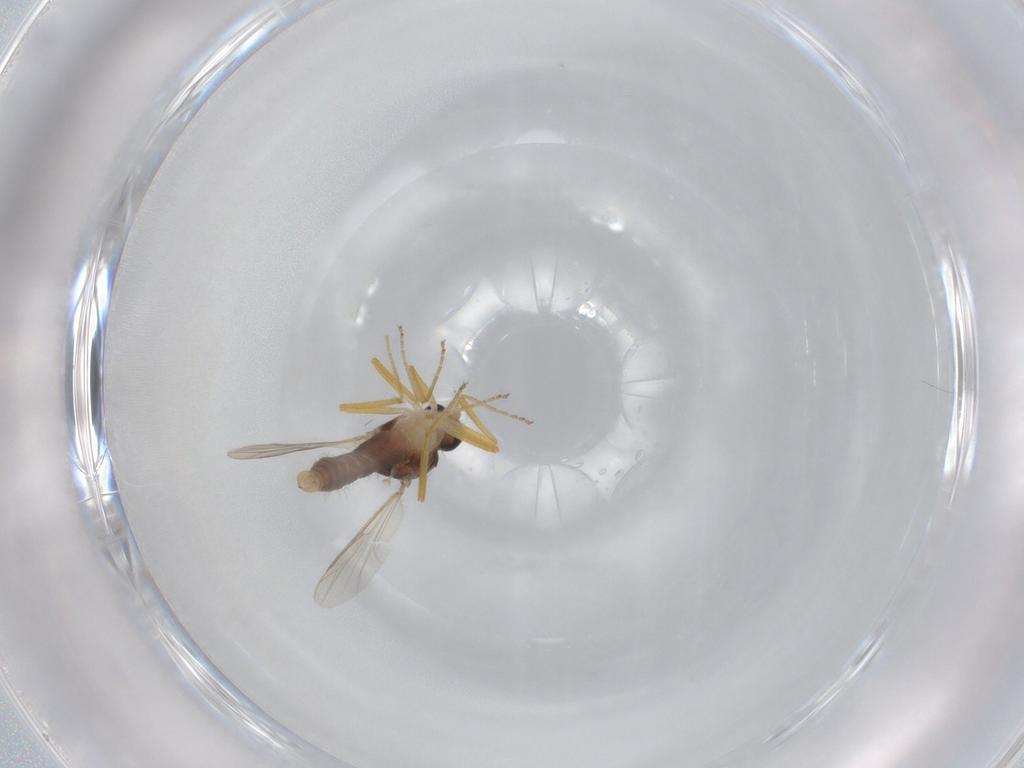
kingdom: Animalia
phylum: Arthropoda
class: Insecta
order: Diptera
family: Ceratopogonidae
